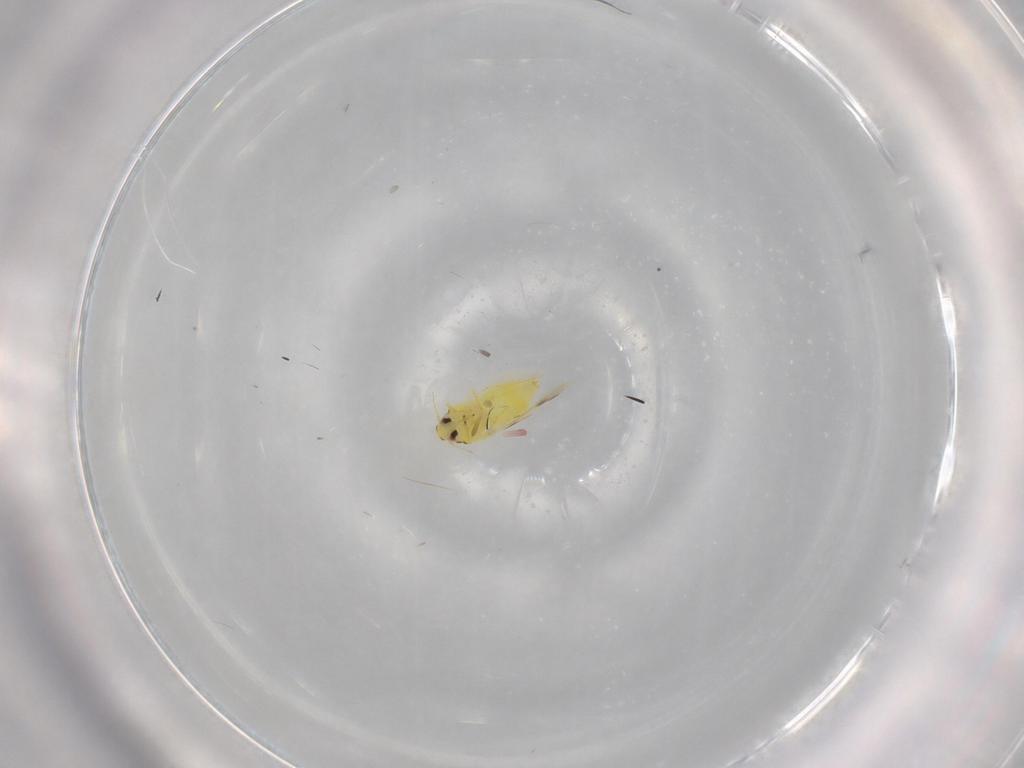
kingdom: Animalia
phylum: Arthropoda
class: Insecta
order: Hemiptera
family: Aleyrodidae
